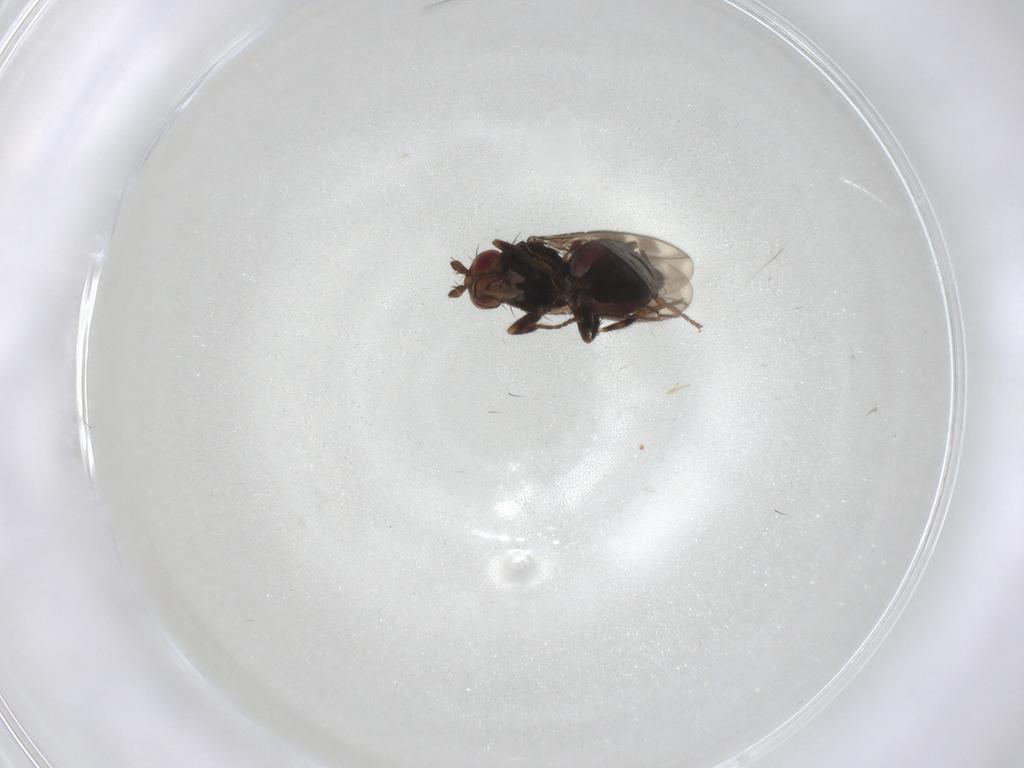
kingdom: Animalia
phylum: Arthropoda
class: Insecta
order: Diptera
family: Sphaeroceridae
